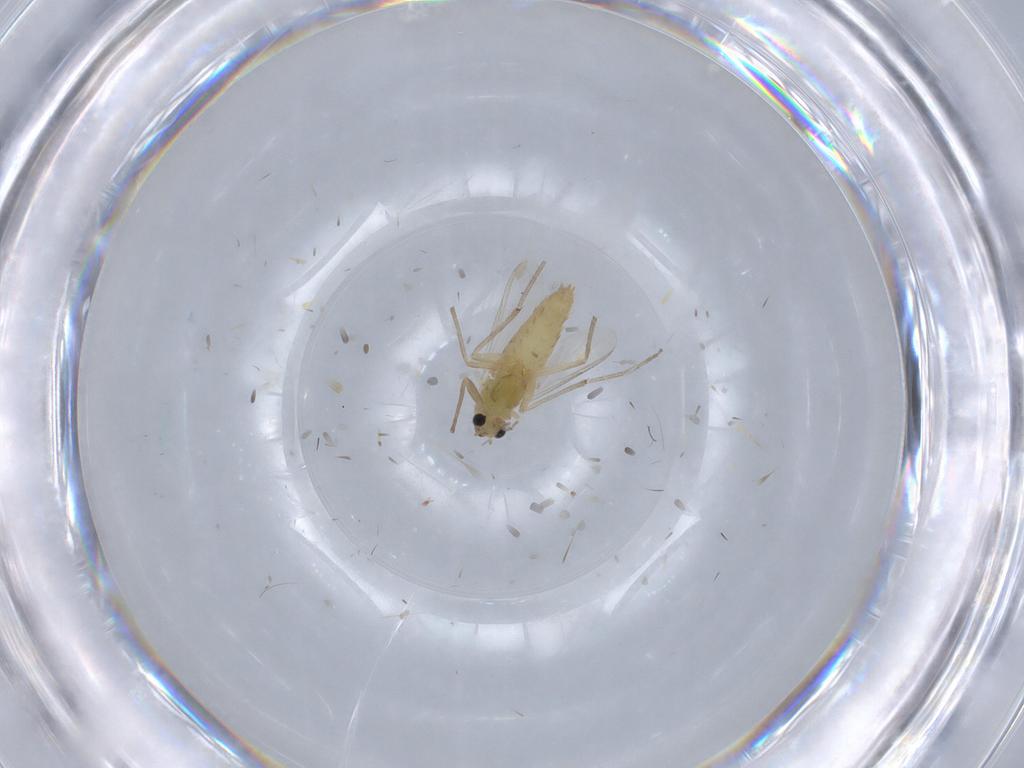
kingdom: Animalia
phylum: Arthropoda
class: Insecta
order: Diptera
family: Chironomidae
